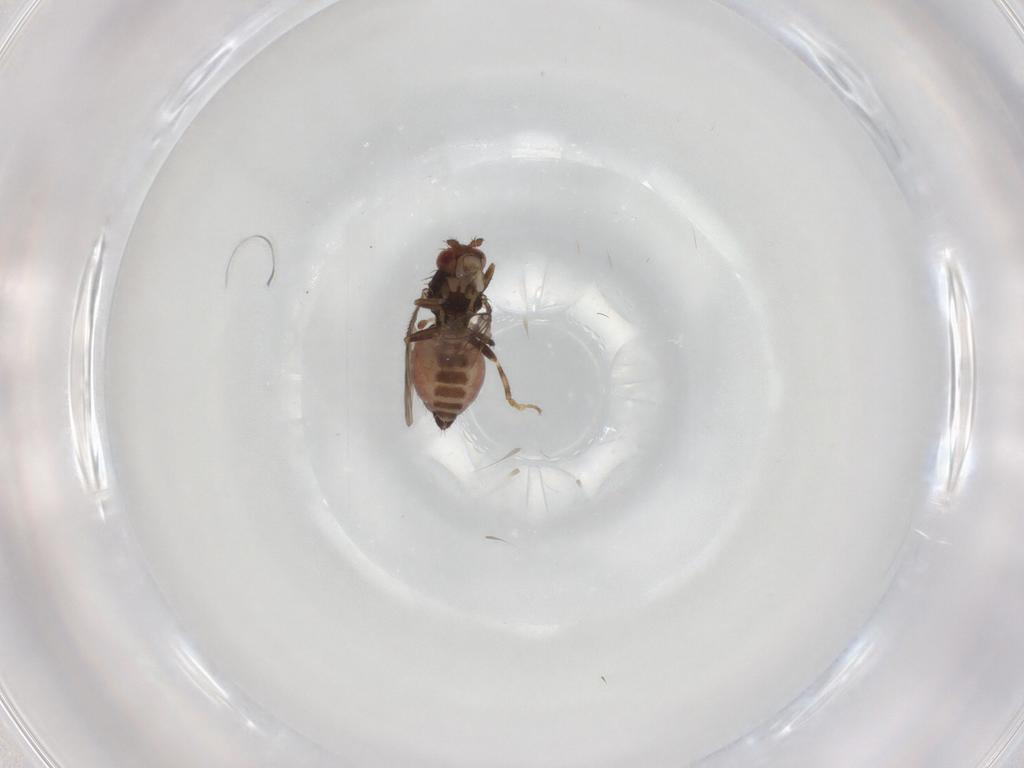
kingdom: Animalia
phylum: Arthropoda
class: Insecta
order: Diptera
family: Sphaeroceridae
